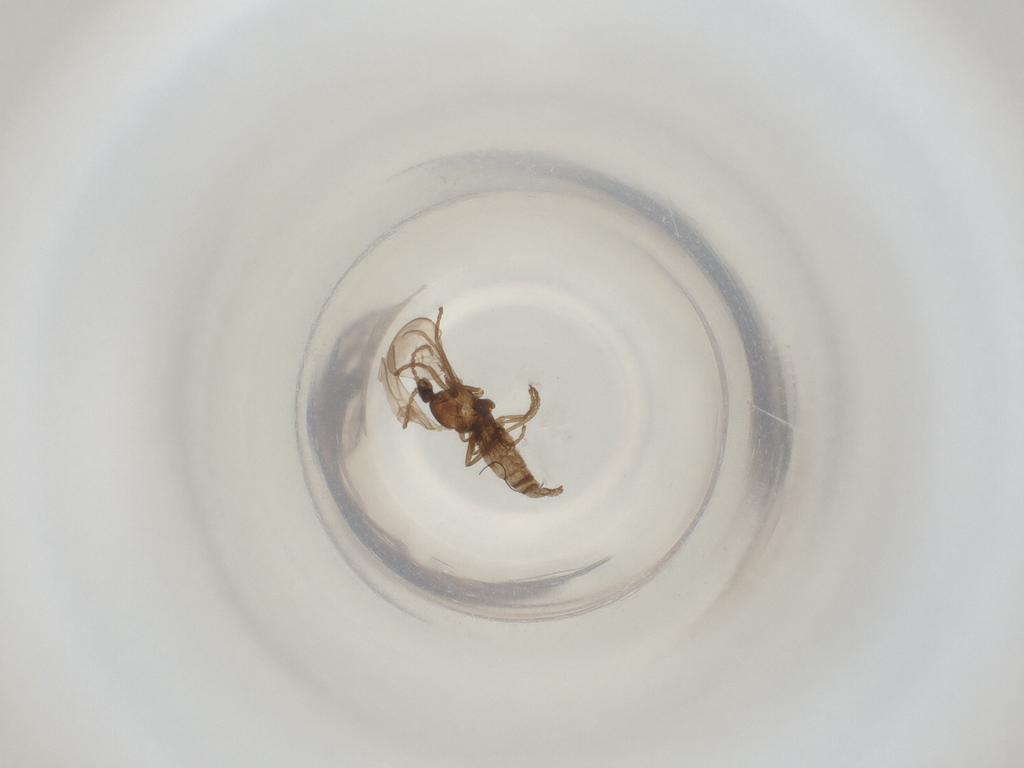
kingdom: Animalia
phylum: Arthropoda
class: Insecta
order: Diptera
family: Cecidomyiidae
